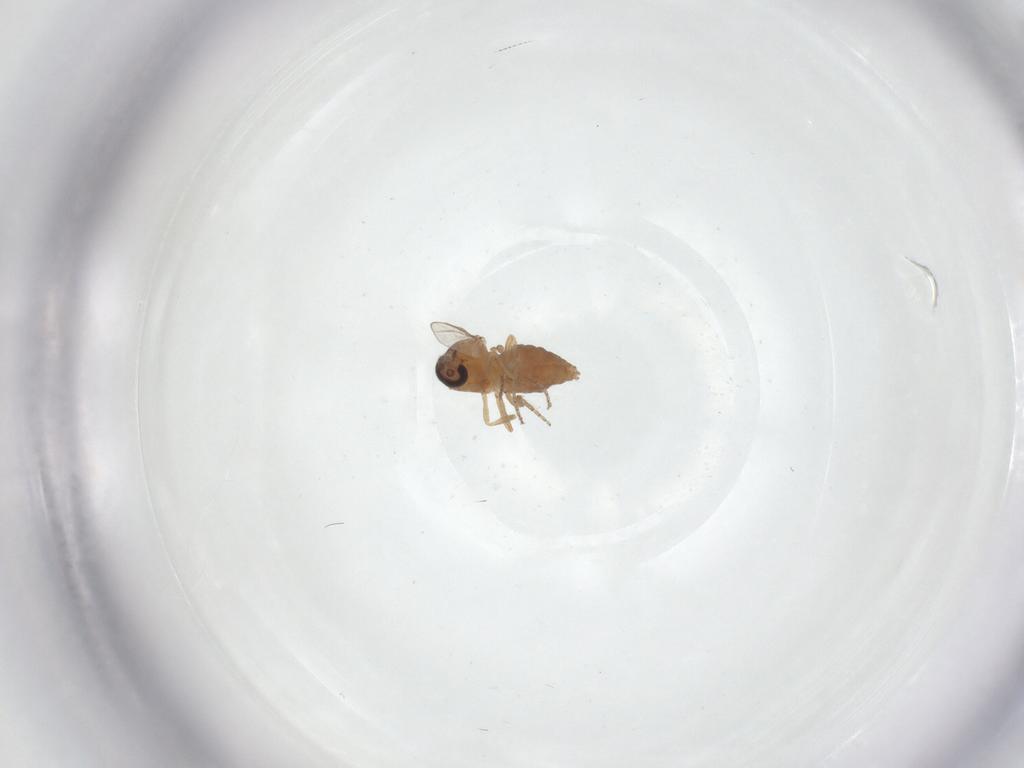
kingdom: Animalia
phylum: Arthropoda
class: Insecta
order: Diptera
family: Ceratopogonidae
